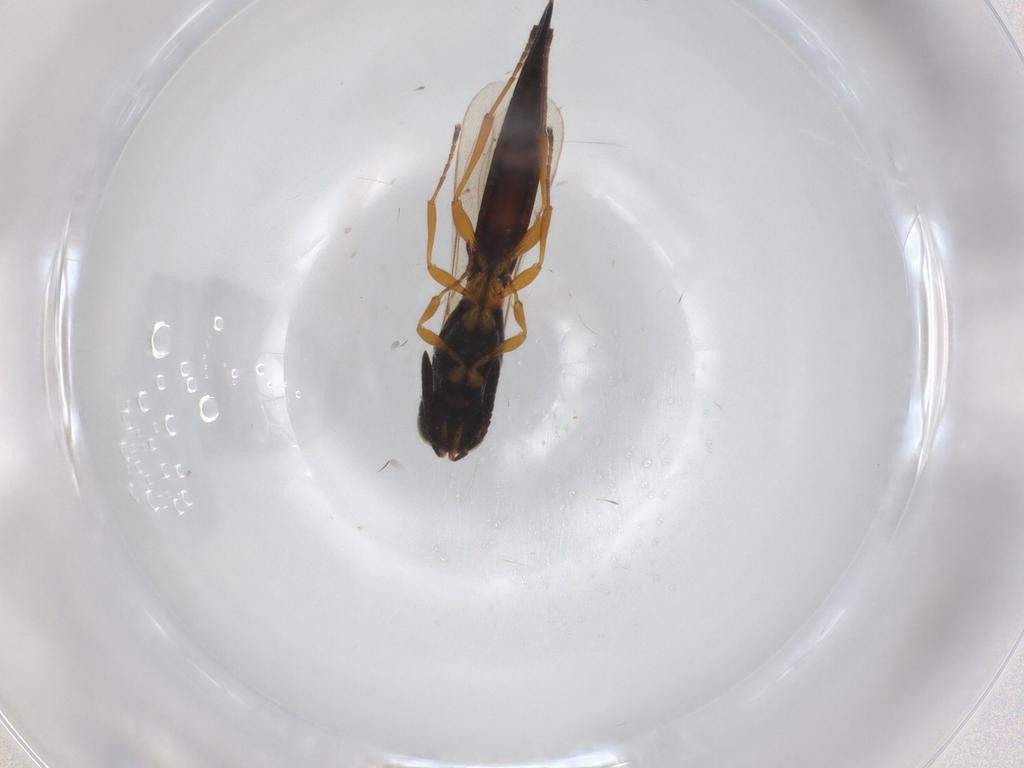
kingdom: Animalia
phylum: Arthropoda
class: Insecta
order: Hymenoptera
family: Scelionidae
